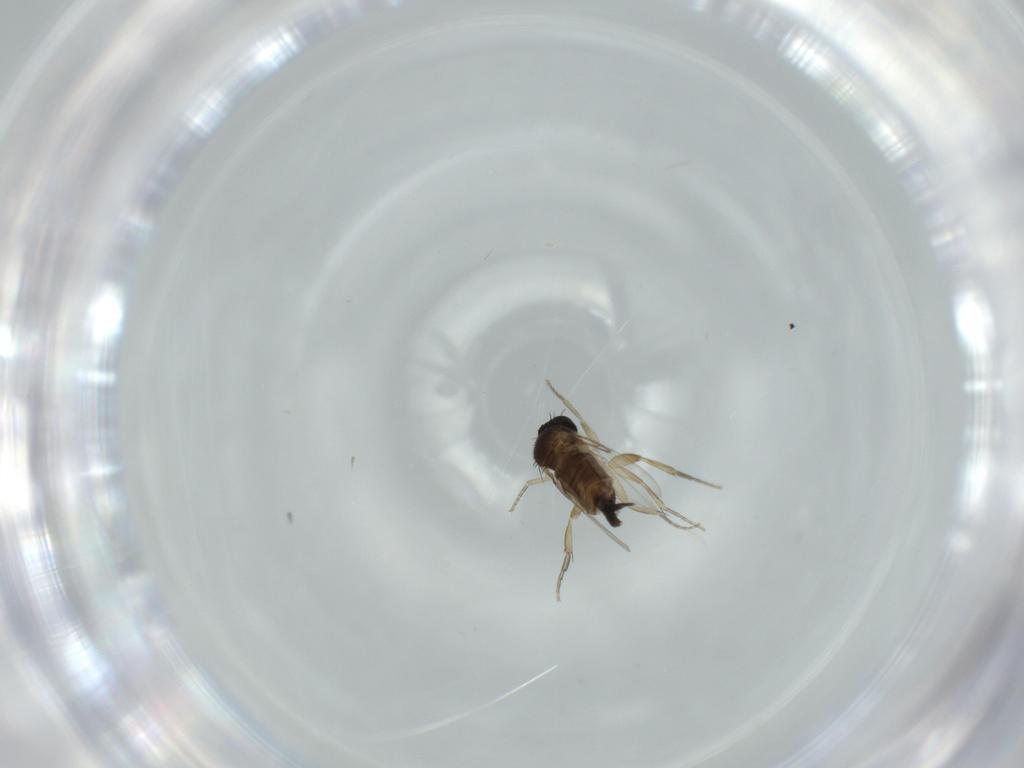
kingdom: Animalia
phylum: Arthropoda
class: Insecta
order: Diptera
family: Phoridae
